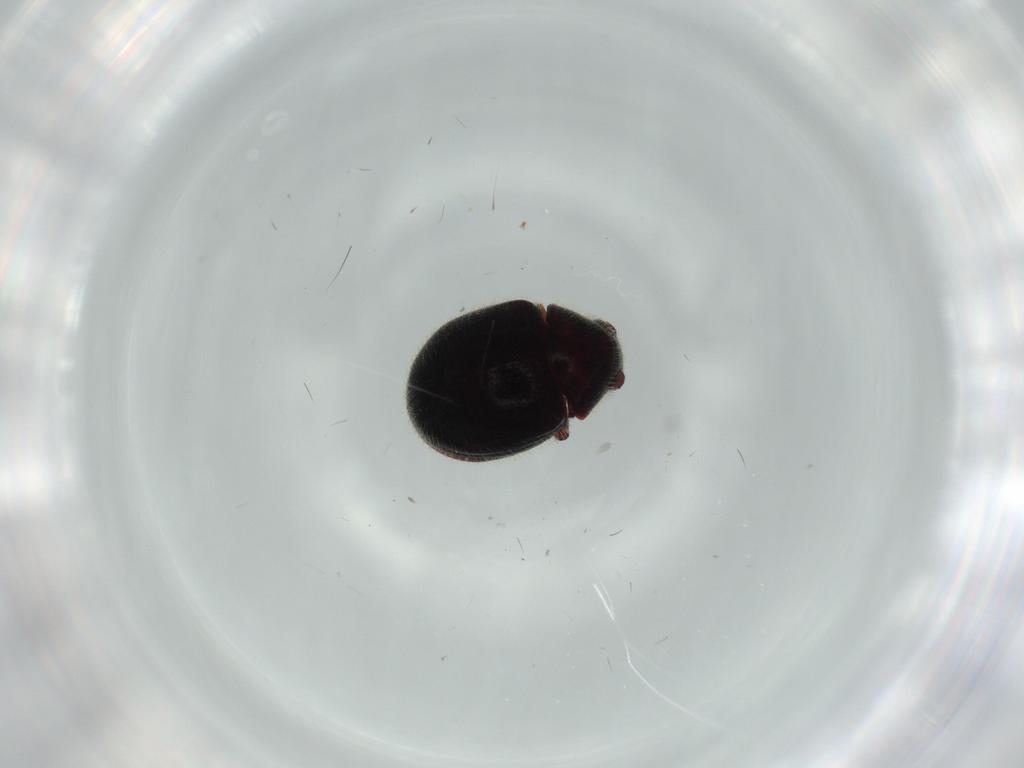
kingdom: Animalia
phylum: Arthropoda
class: Insecta
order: Coleoptera
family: Ptinidae
